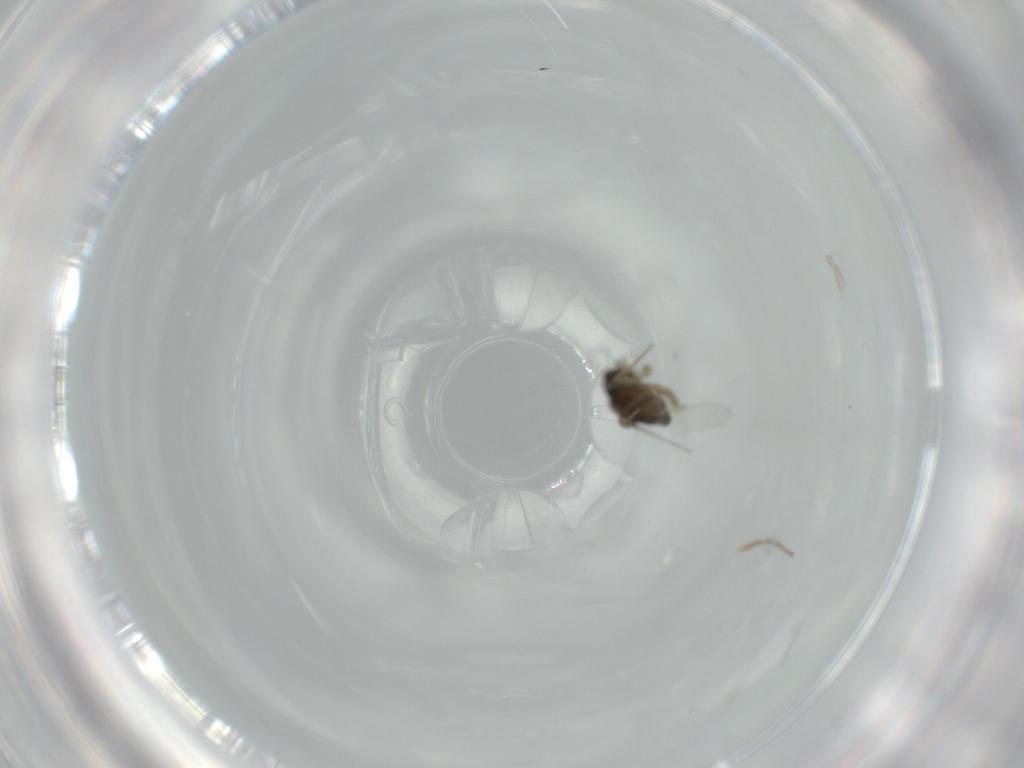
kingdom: Animalia
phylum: Arthropoda
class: Insecta
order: Diptera
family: Phoridae
